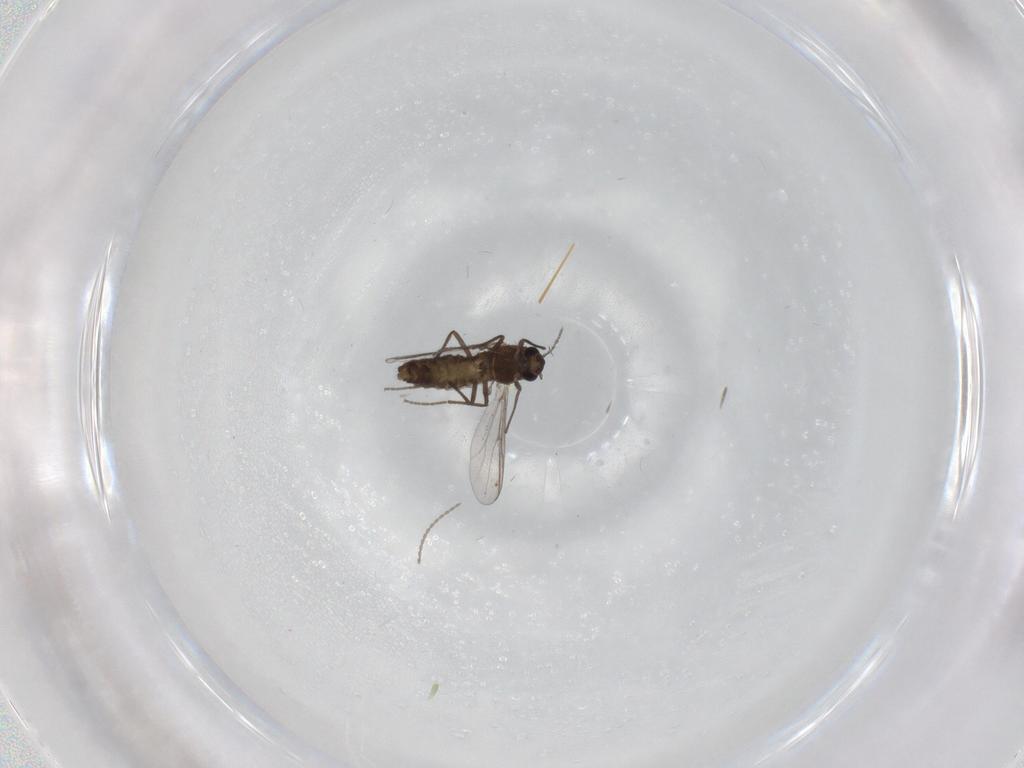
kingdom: Animalia
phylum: Arthropoda
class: Insecta
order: Diptera
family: Chironomidae
